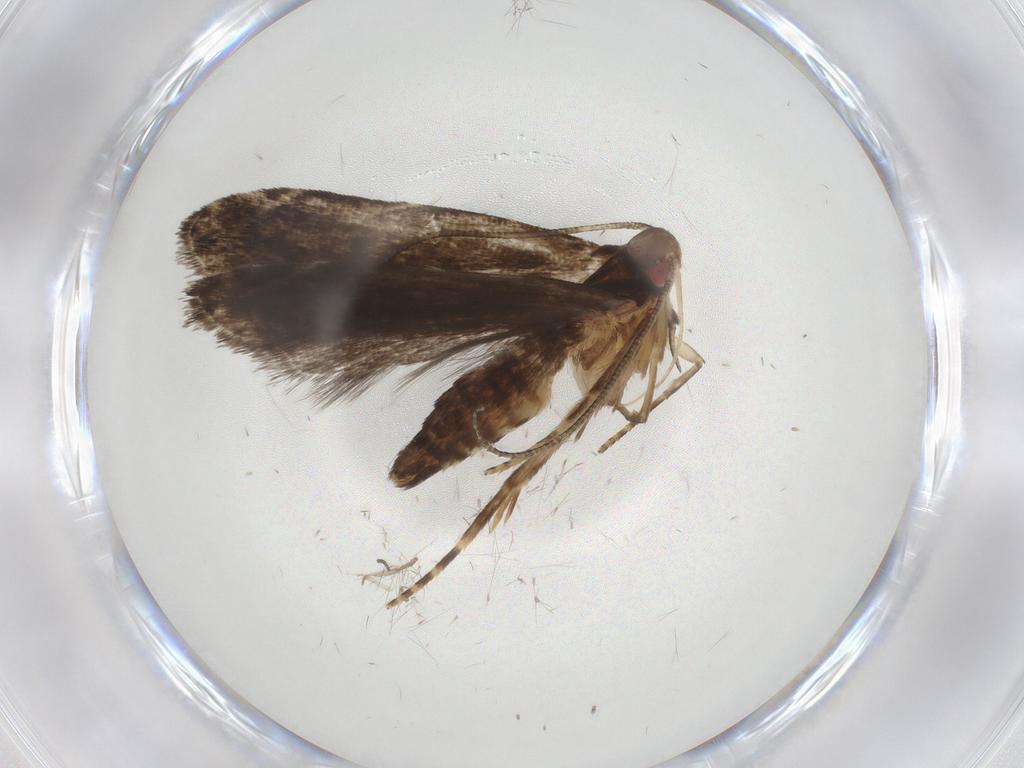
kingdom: Animalia
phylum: Arthropoda
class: Insecta
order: Lepidoptera
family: Gelechiidae
